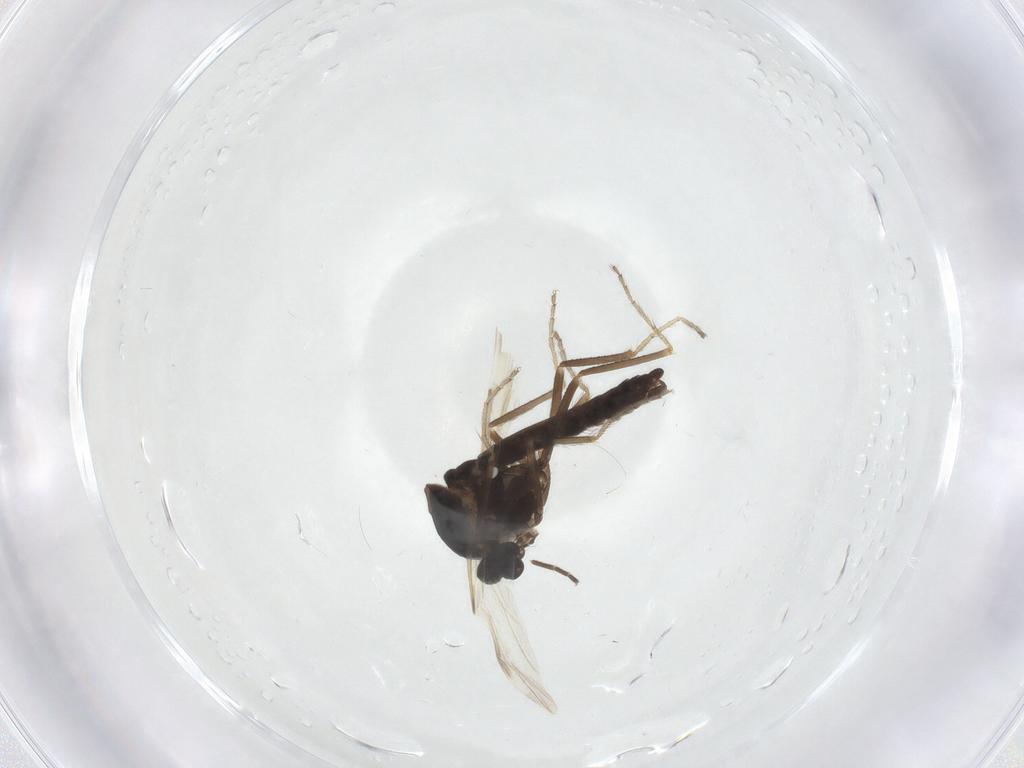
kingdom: Animalia
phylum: Arthropoda
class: Insecta
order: Diptera
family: Ceratopogonidae
